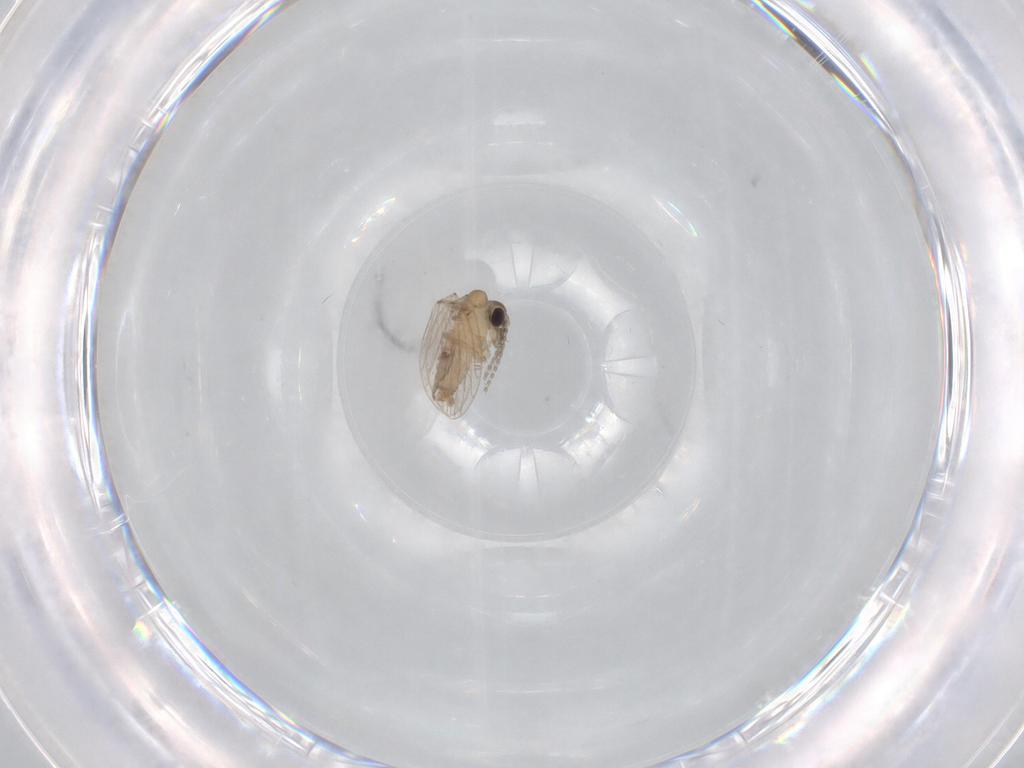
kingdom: Animalia
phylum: Arthropoda
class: Insecta
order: Diptera
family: Psychodidae
